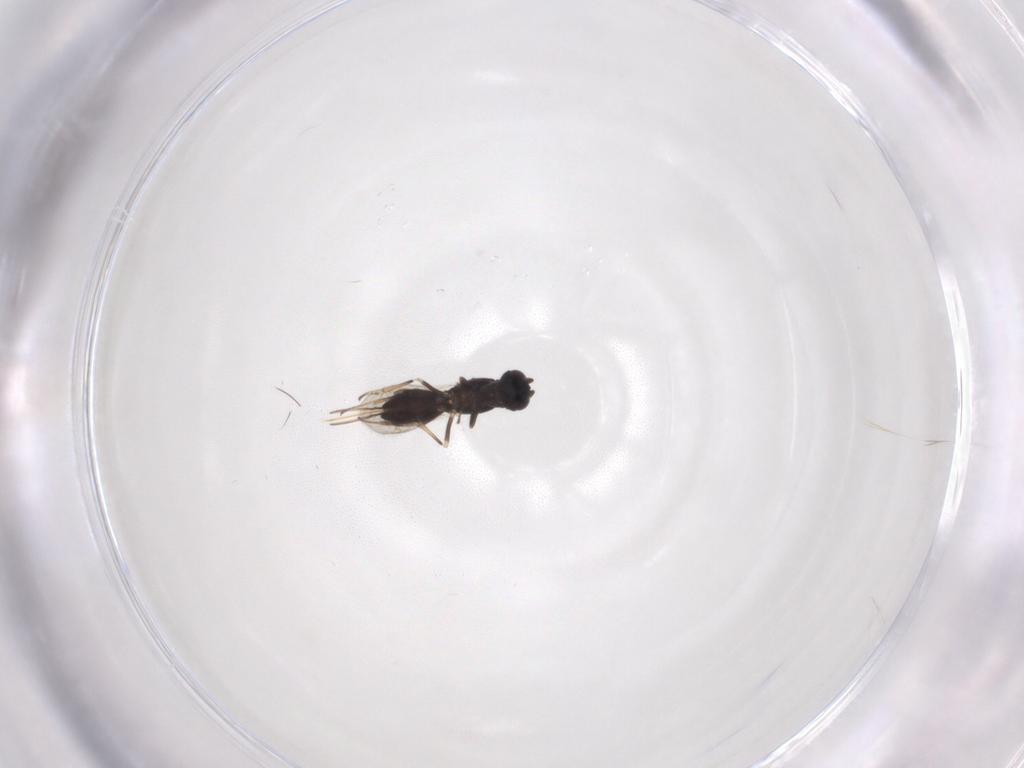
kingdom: Animalia
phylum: Arthropoda
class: Insecta
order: Hymenoptera
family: Eupelmidae
